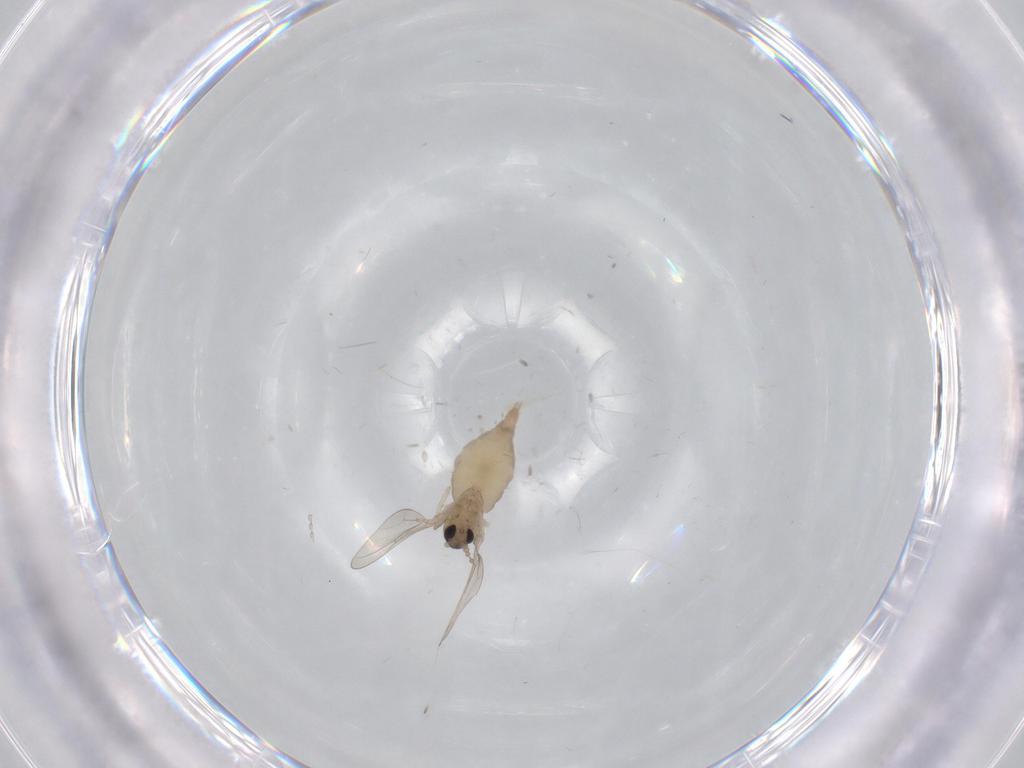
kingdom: Animalia
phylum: Arthropoda
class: Insecta
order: Diptera
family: Cecidomyiidae
